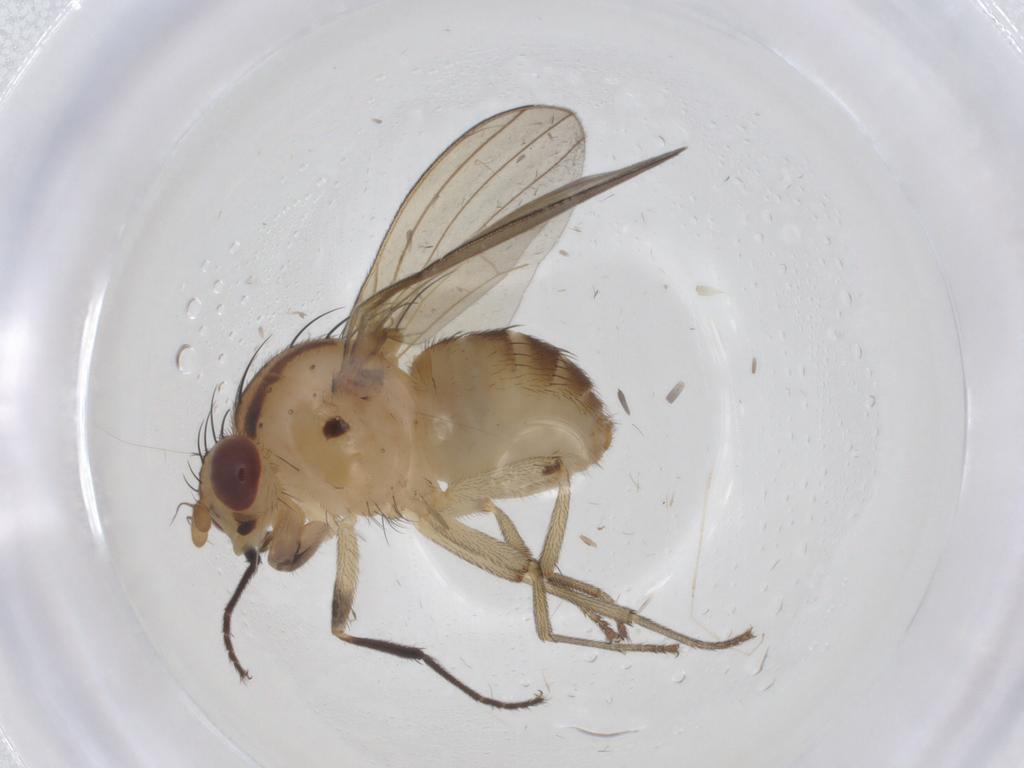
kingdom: Animalia
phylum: Arthropoda
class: Insecta
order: Diptera
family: Lauxaniidae
